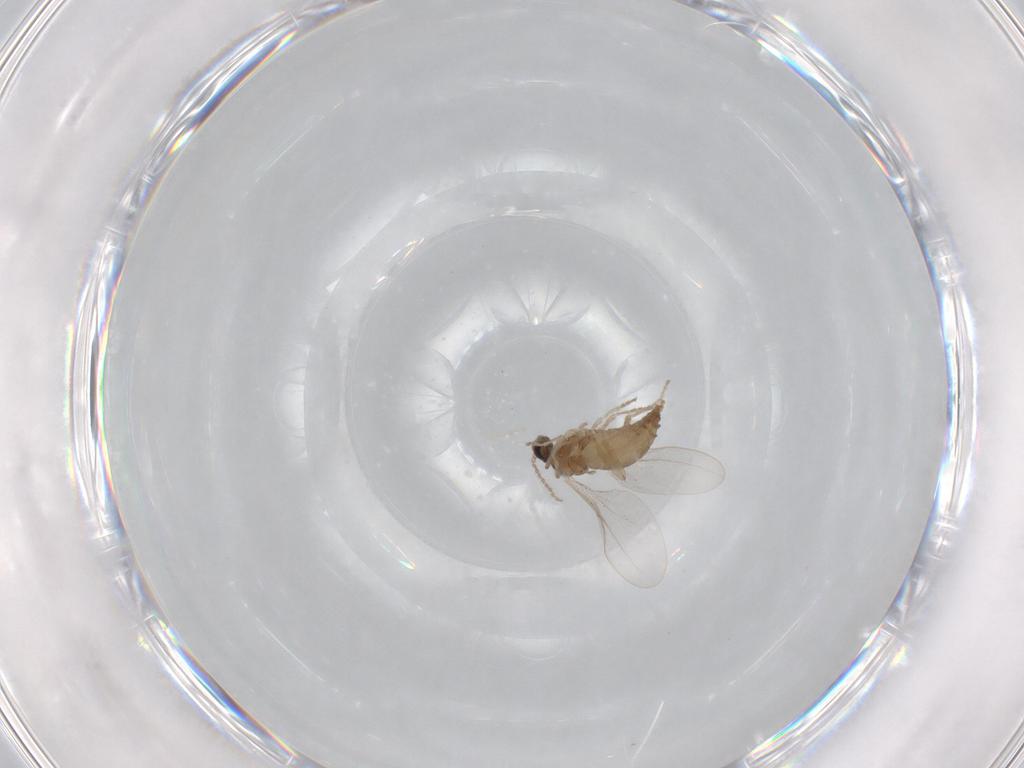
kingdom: Animalia
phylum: Arthropoda
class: Insecta
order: Diptera
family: Cecidomyiidae
